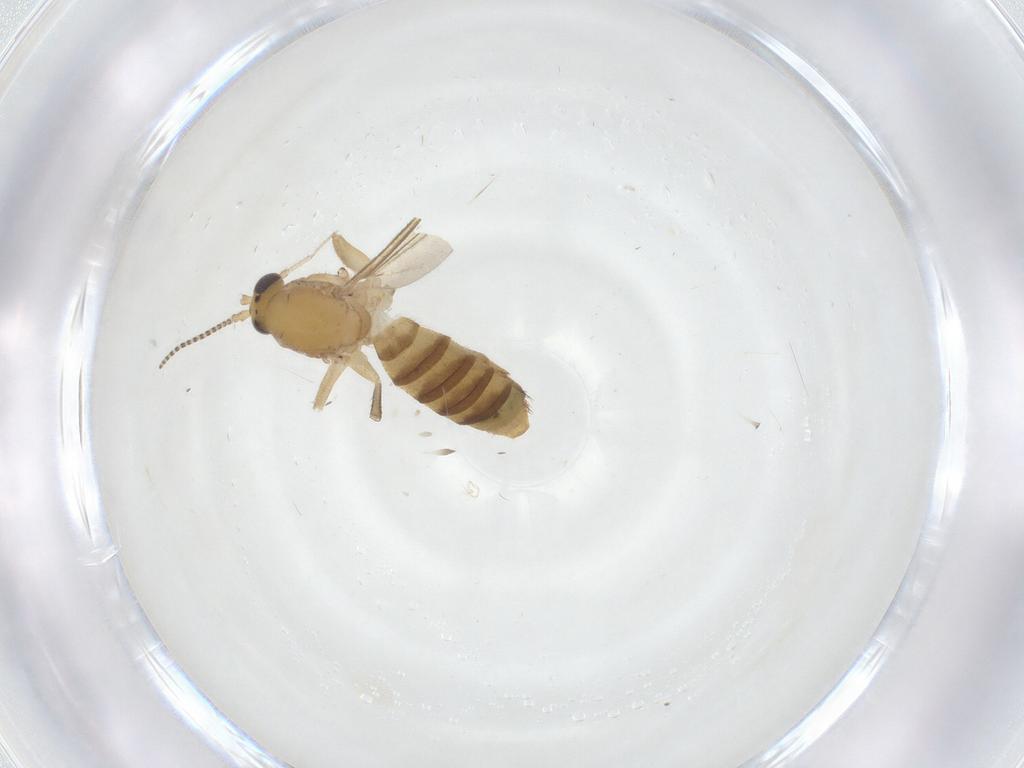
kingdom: Animalia
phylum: Arthropoda
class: Insecta
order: Diptera
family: Mycetophilidae
